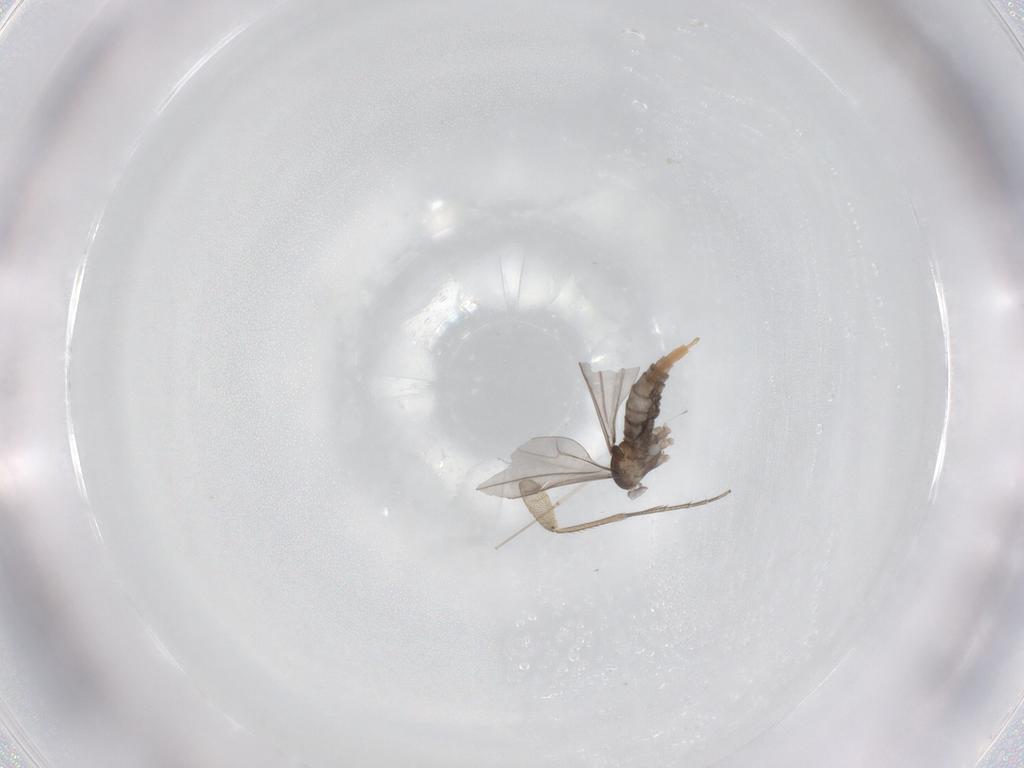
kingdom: Animalia
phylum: Arthropoda
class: Insecta
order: Diptera
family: Cecidomyiidae
